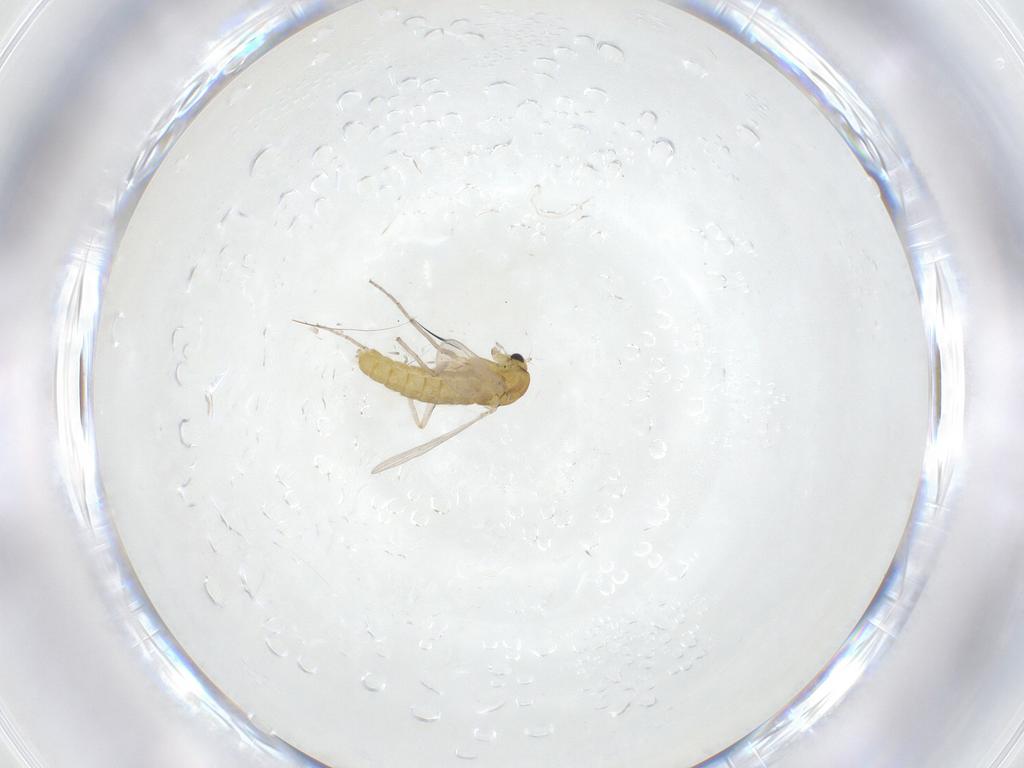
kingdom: Animalia
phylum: Arthropoda
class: Insecta
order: Diptera
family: Chironomidae
